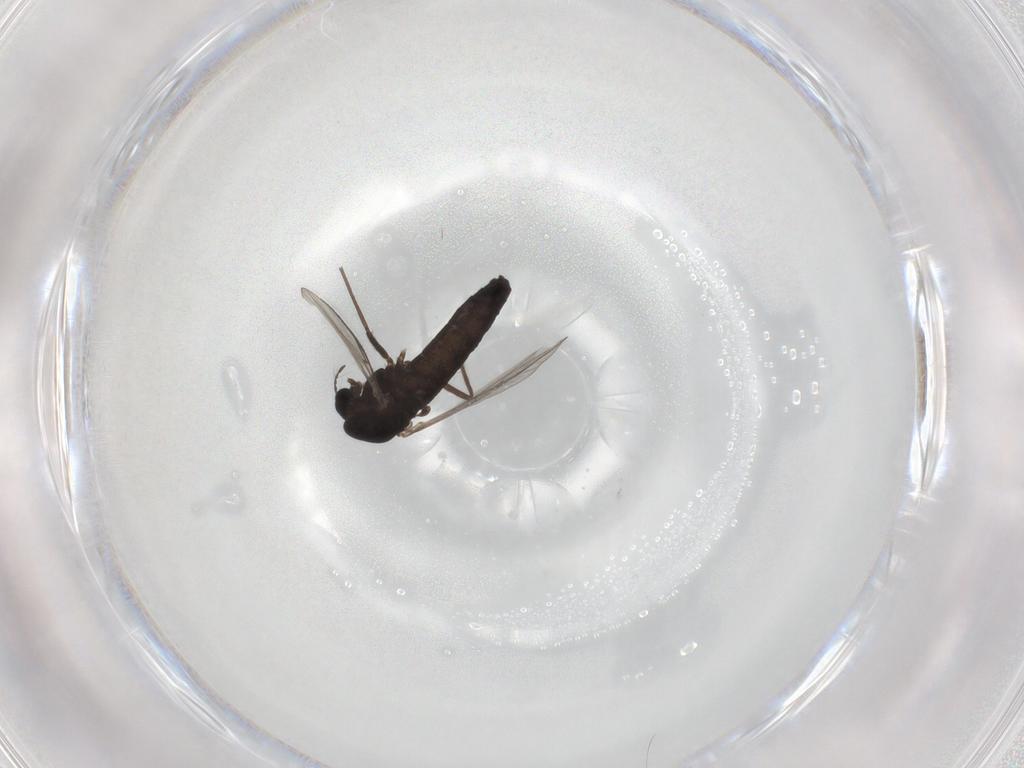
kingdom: Animalia
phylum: Arthropoda
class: Insecta
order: Diptera
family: Chironomidae
